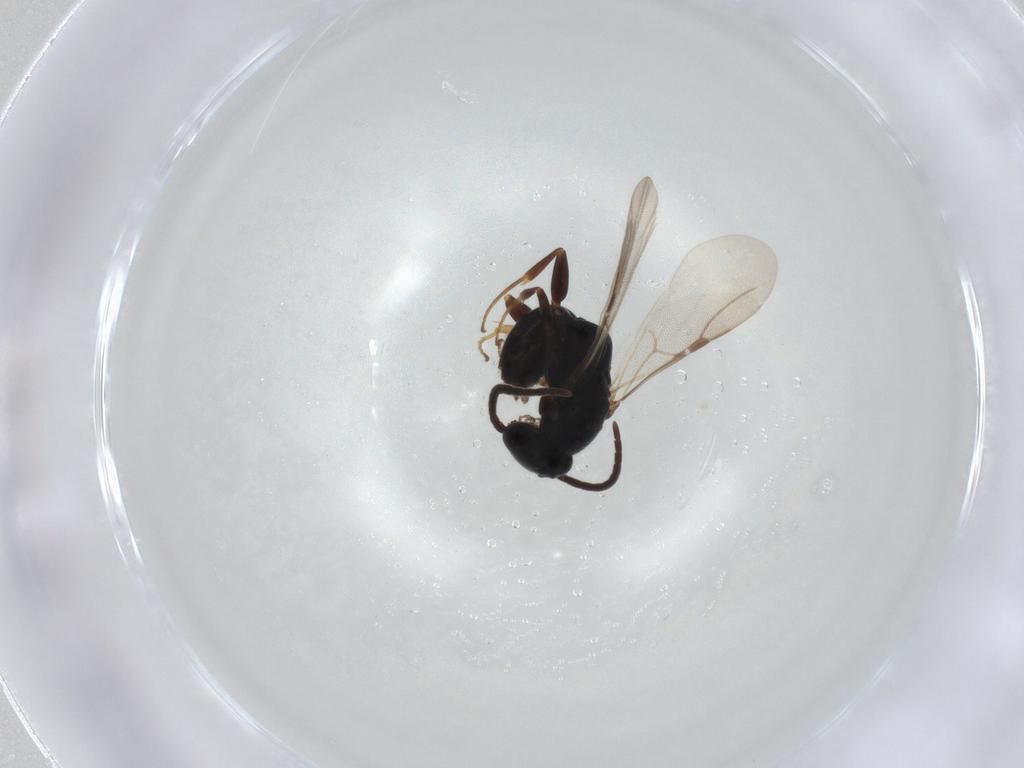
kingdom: Animalia
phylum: Arthropoda
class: Insecta
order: Hymenoptera
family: Bethylidae
